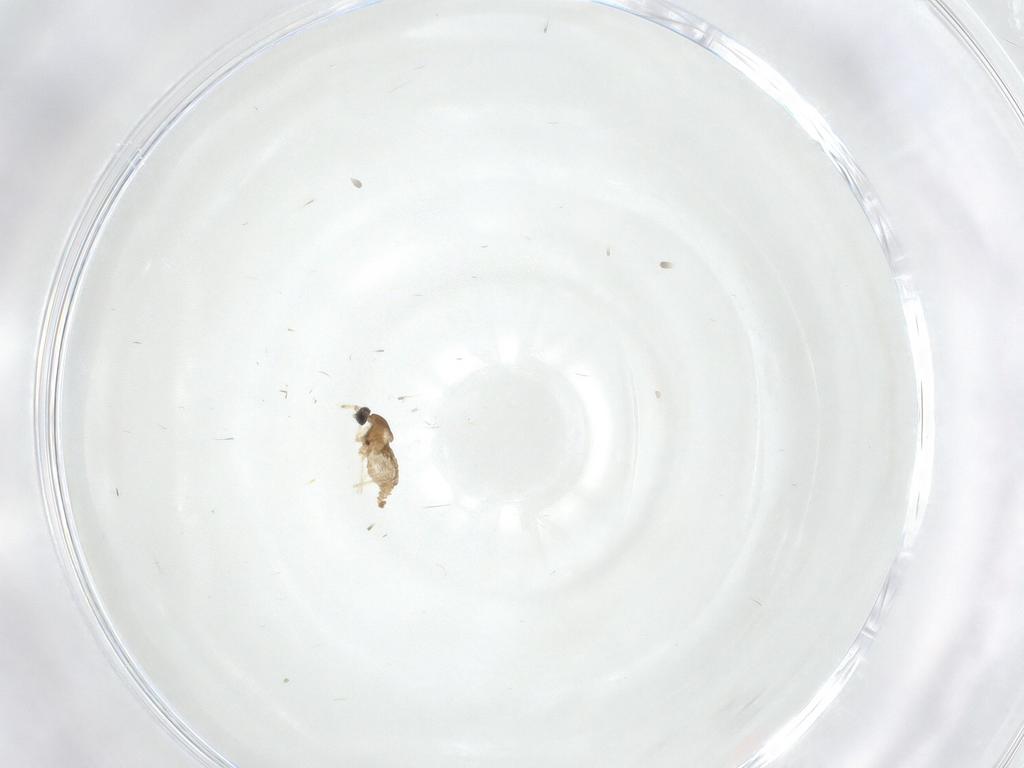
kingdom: Animalia
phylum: Arthropoda
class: Insecta
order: Diptera
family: Cecidomyiidae
